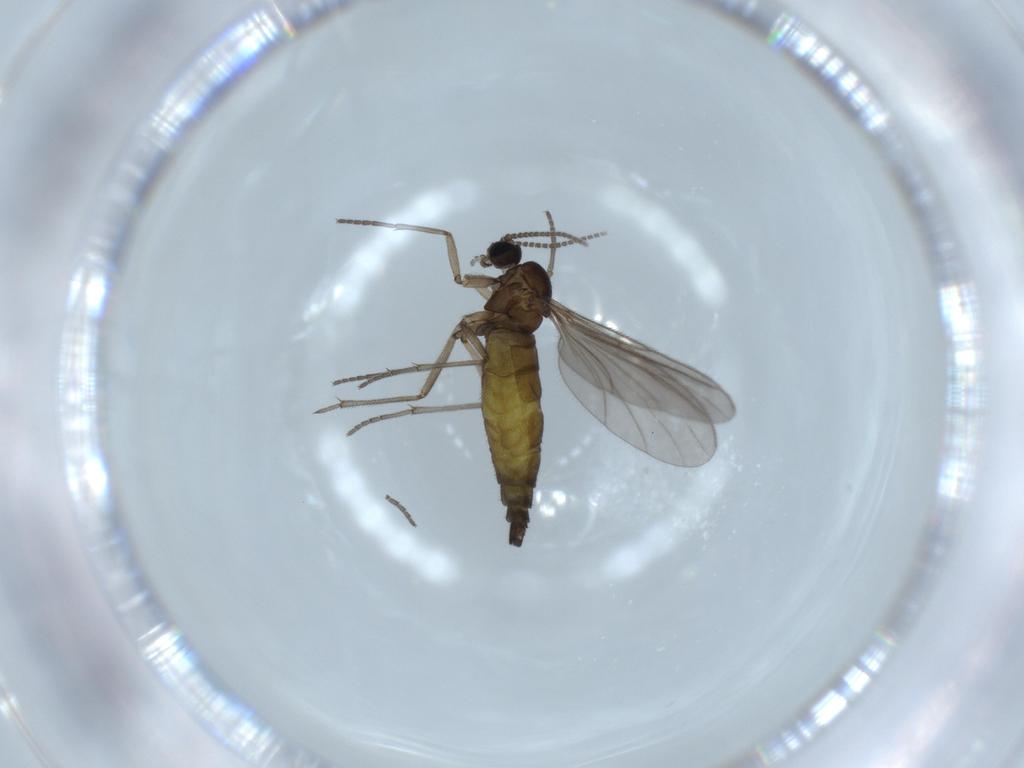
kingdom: Animalia
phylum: Arthropoda
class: Insecta
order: Diptera
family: Sciaridae
